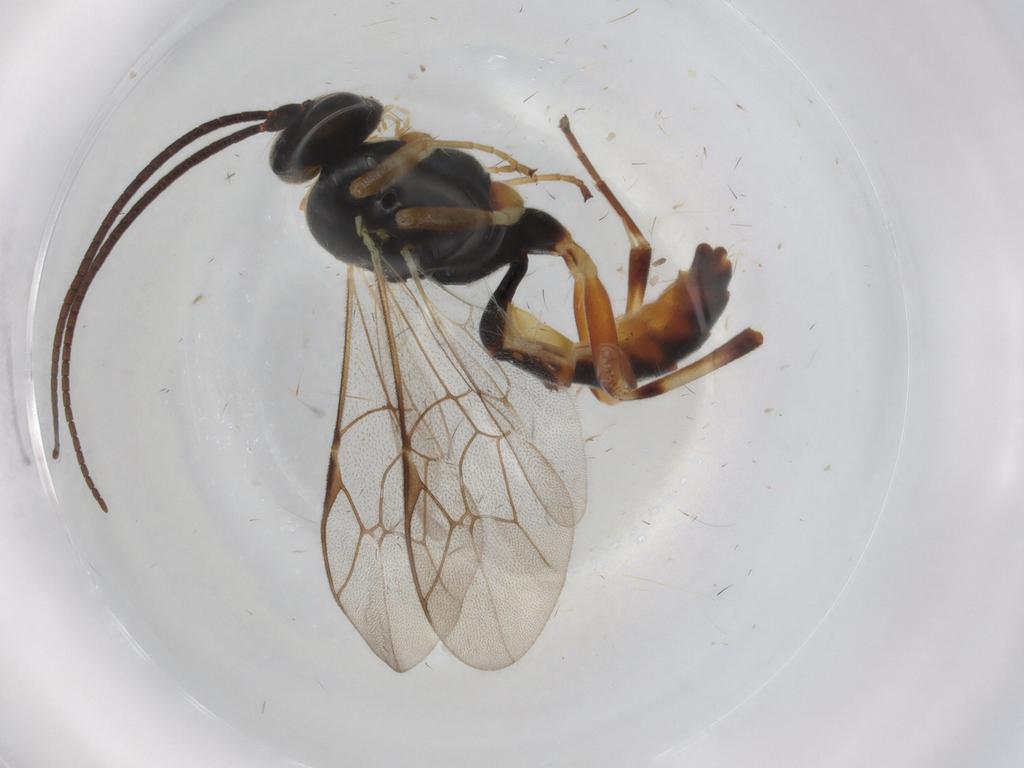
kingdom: Animalia
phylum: Arthropoda
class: Insecta
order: Hymenoptera
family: Ichneumonidae
